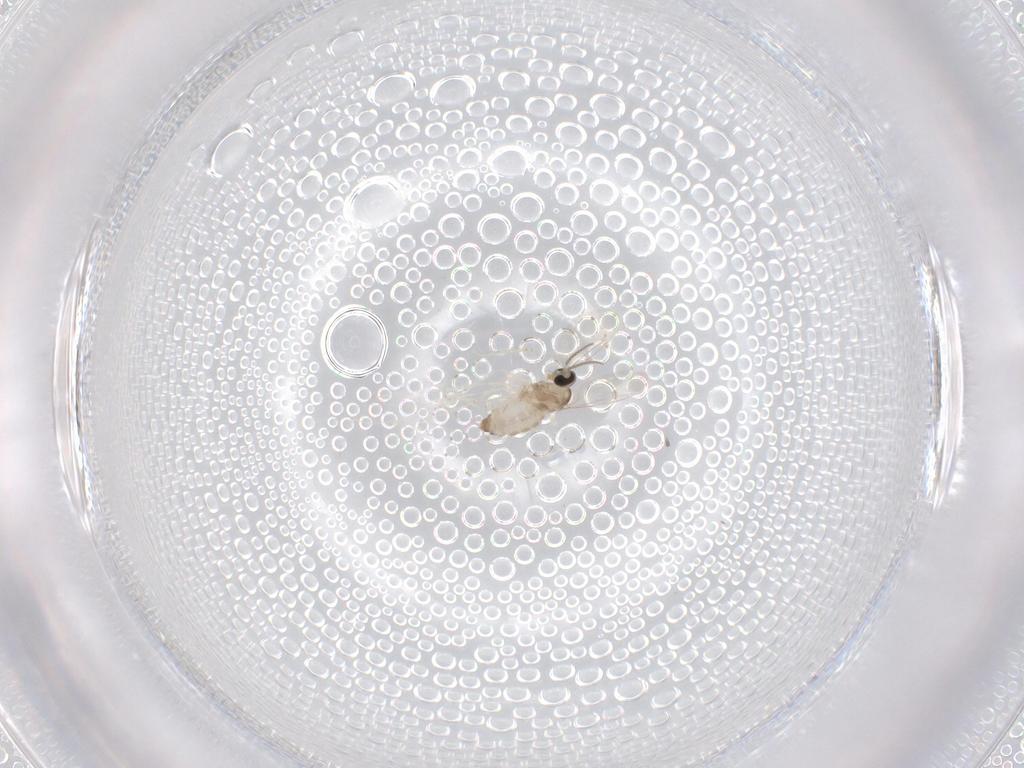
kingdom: Animalia
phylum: Arthropoda
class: Insecta
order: Diptera
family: Cecidomyiidae
